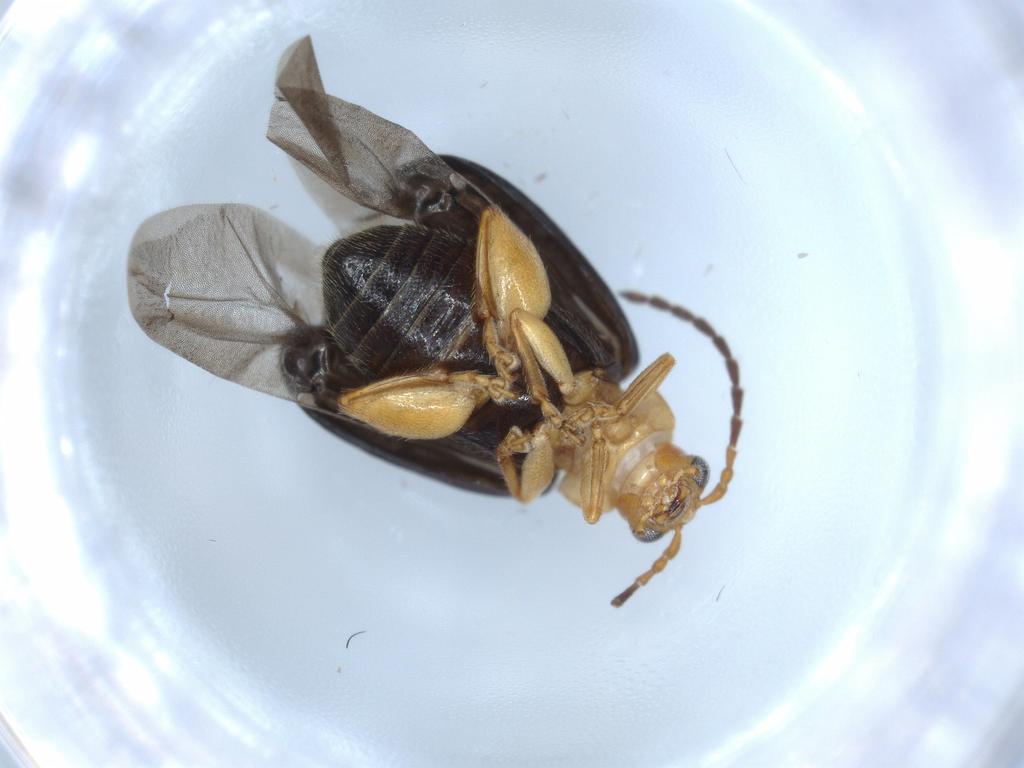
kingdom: Animalia
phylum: Arthropoda
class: Insecta
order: Coleoptera
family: Chrysomelidae
